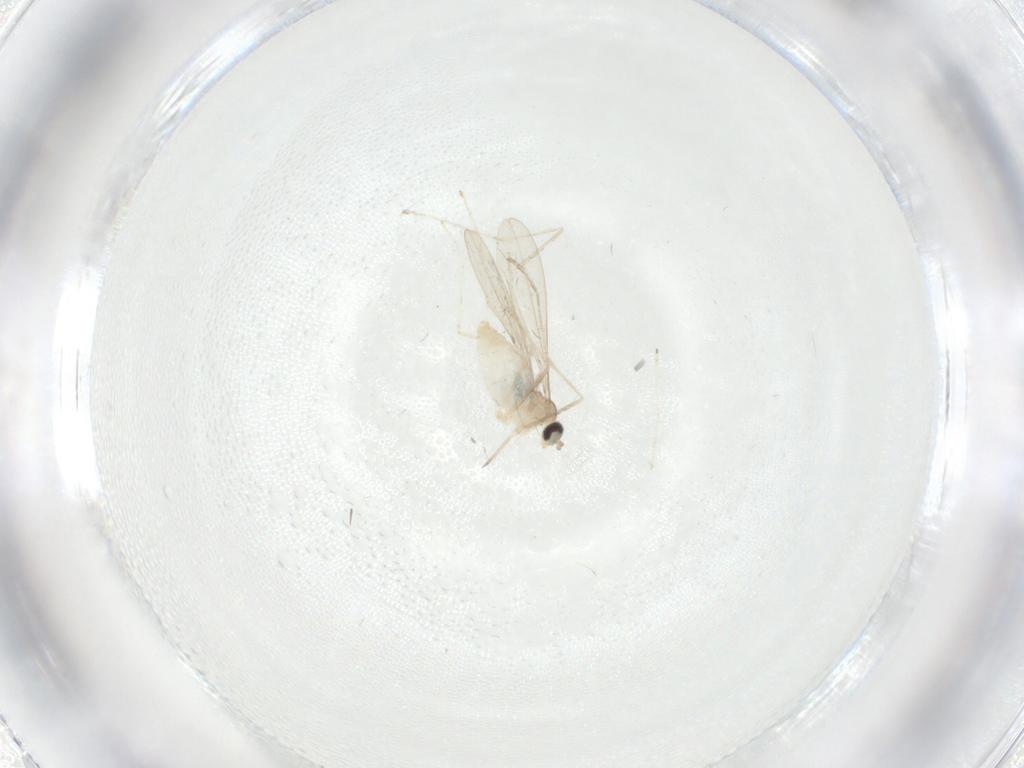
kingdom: Animalia
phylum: Arthropoda
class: Insecta
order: Diptera
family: Cecidomyiidae
